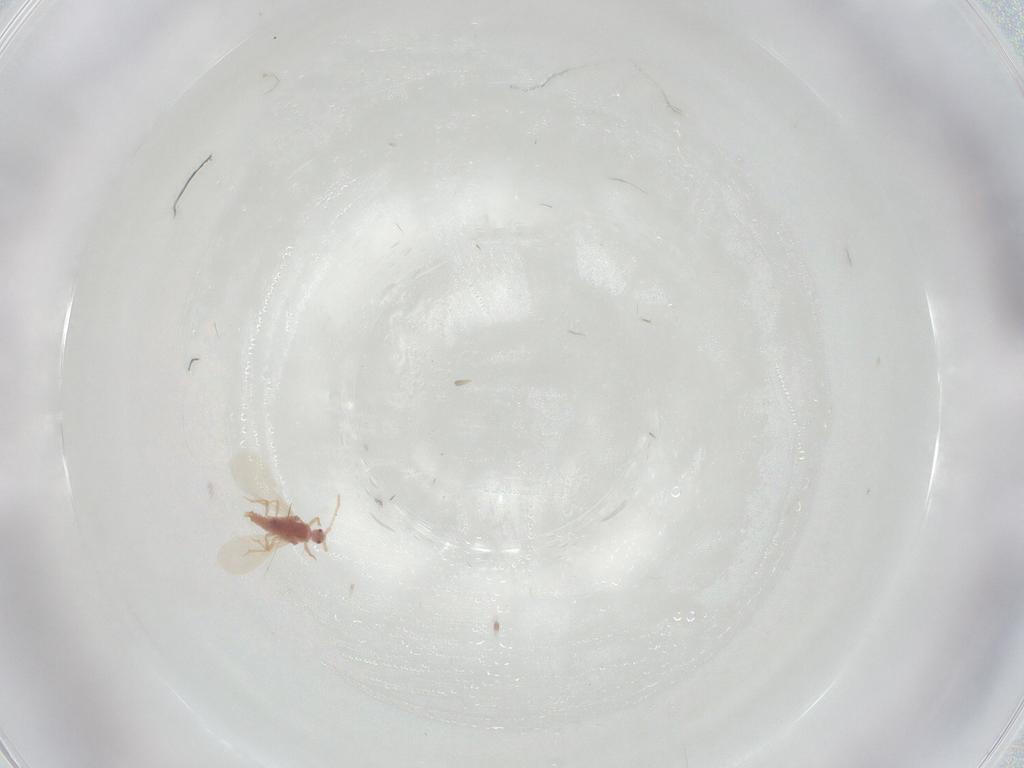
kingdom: Animalia
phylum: Arthropoda
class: Insecta
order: Hemiptera
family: Pseudococcidae
